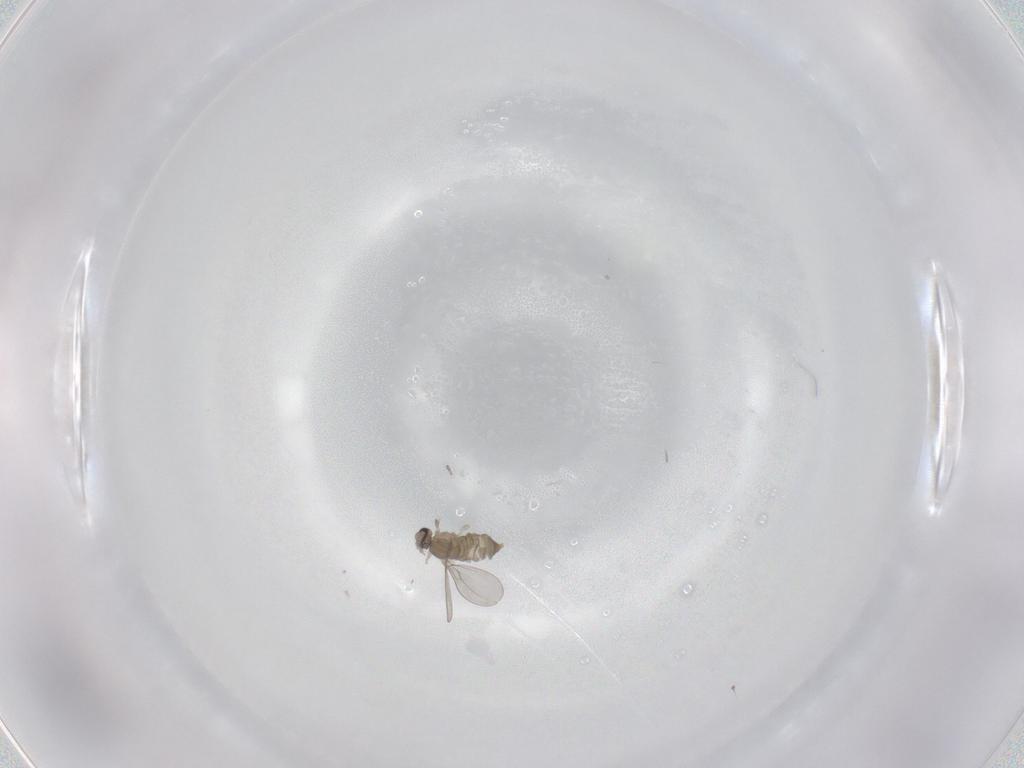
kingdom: Animalia
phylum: Arthropoda
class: Insecta
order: Diptera
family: Cecidomyiidae
